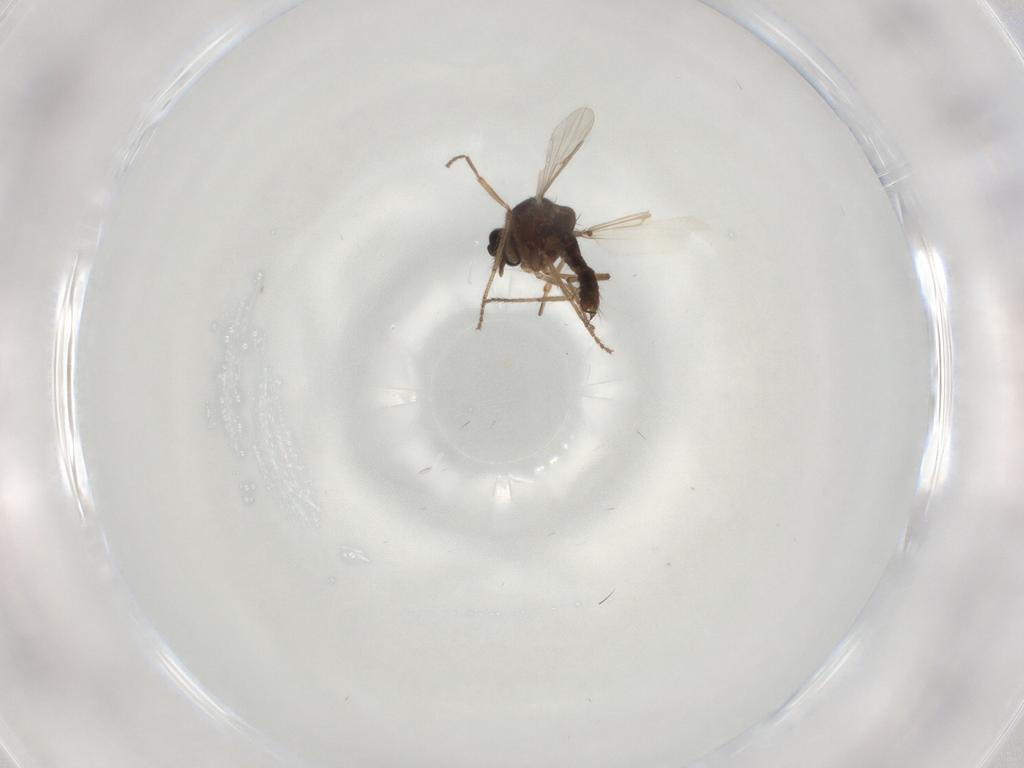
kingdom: Animalia
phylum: Arthropoda
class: Insecta
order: Diptera
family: Ceratopogonidae
